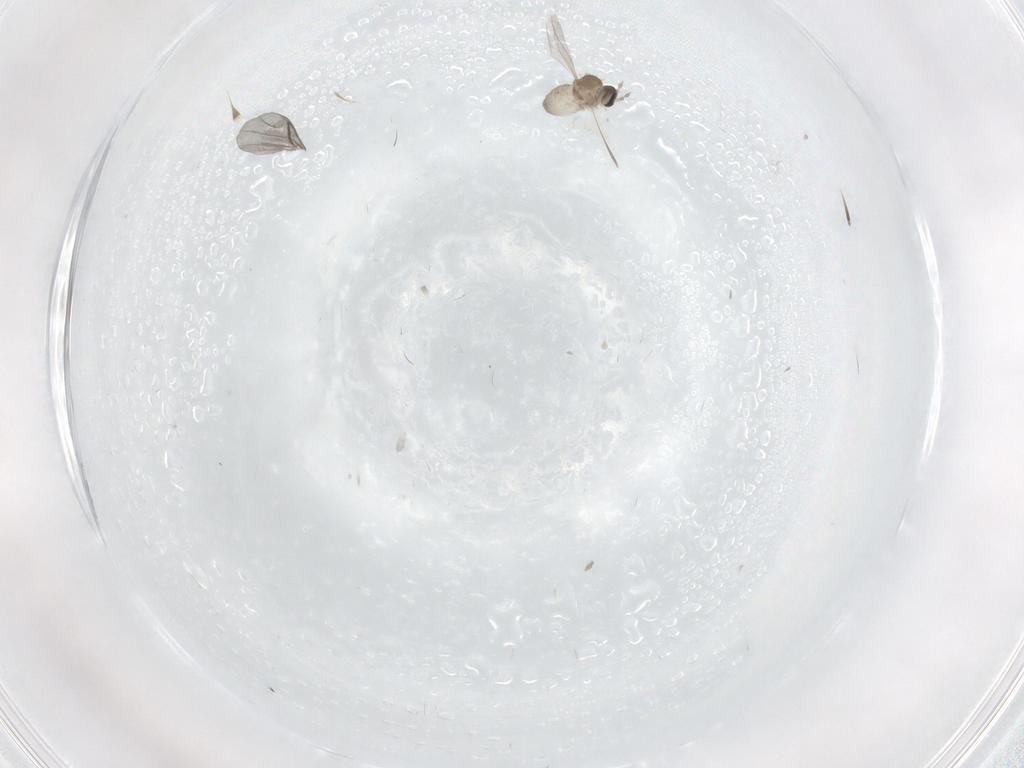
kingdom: Animalia
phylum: Arthropoda
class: Insecta
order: Diptera
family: Cecidomyiidae
